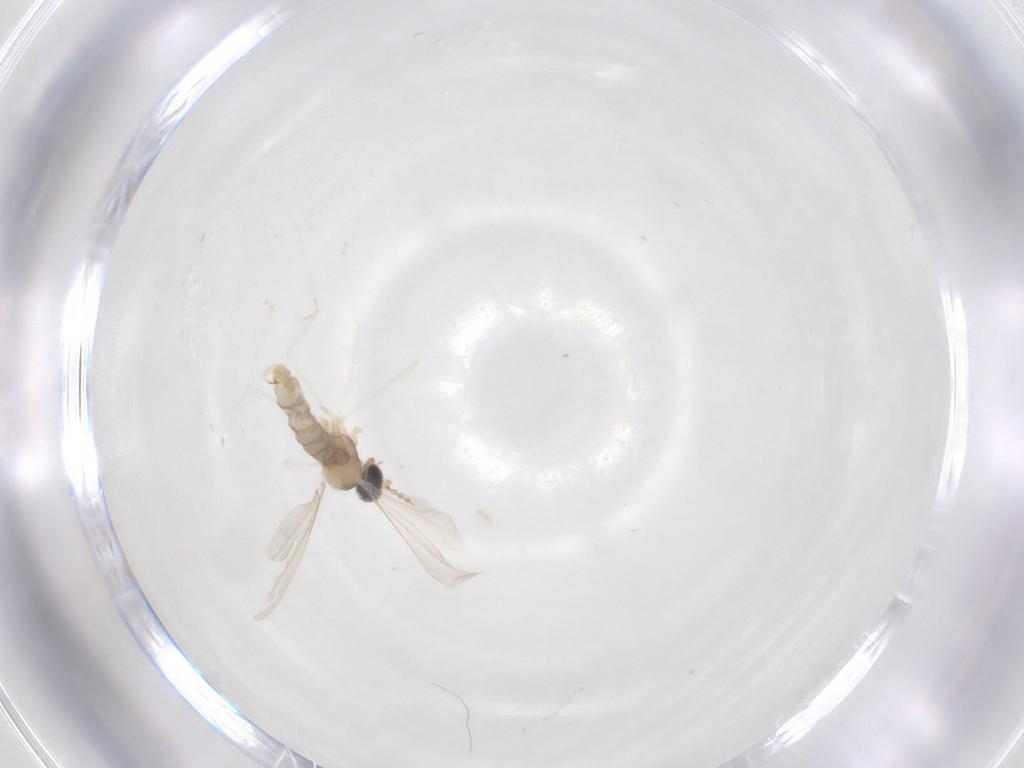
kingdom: Animalia
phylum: Arthropoda
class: Insecta
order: Diptera
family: Cecidomyiidae
